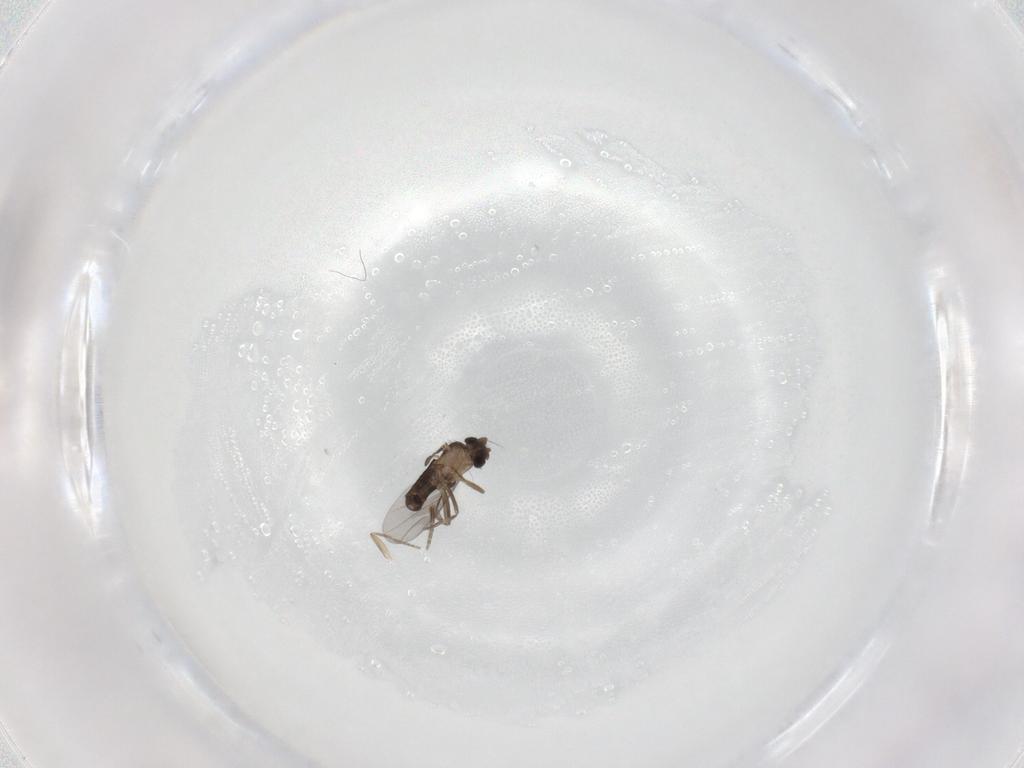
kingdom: Animalia
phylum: Arthropoda
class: Insecta
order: Diptera
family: Phoridae
